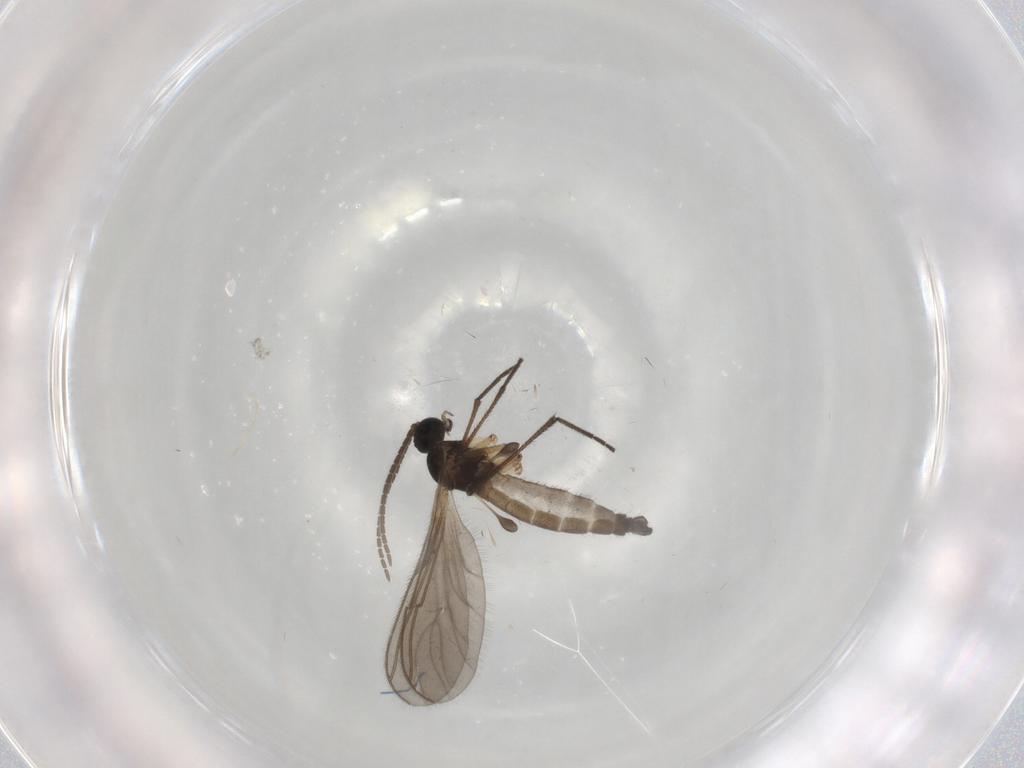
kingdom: Animalia
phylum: Arthropoda
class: Insecta
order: Diptera
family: Sciaridae
